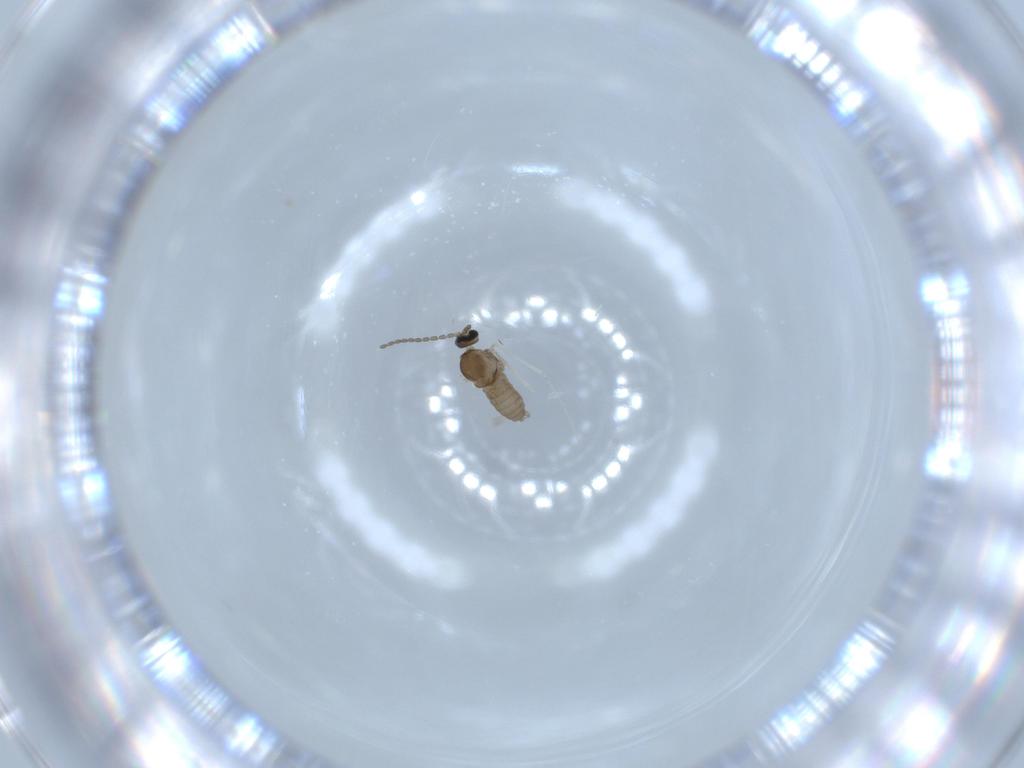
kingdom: Animalia
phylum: Arthropoda
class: Insecta
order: Diptera
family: Cecidomyiidae
